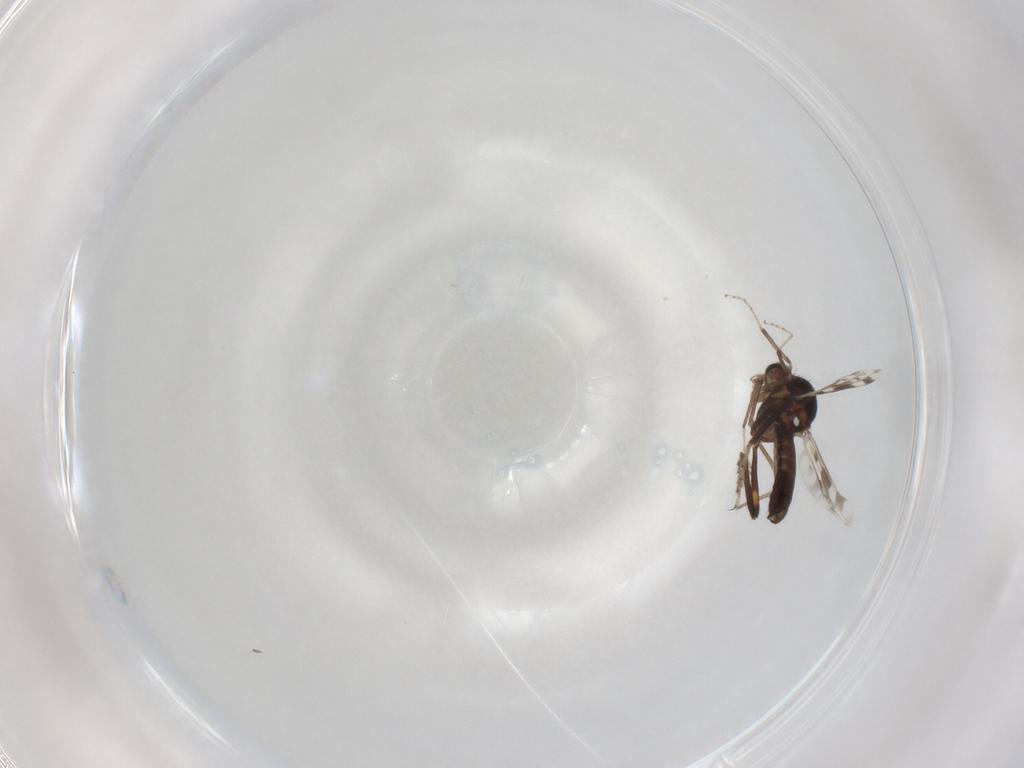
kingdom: Animalia
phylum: Arthropoda
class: Insecta
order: Diptera
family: Ceratopogonidae
